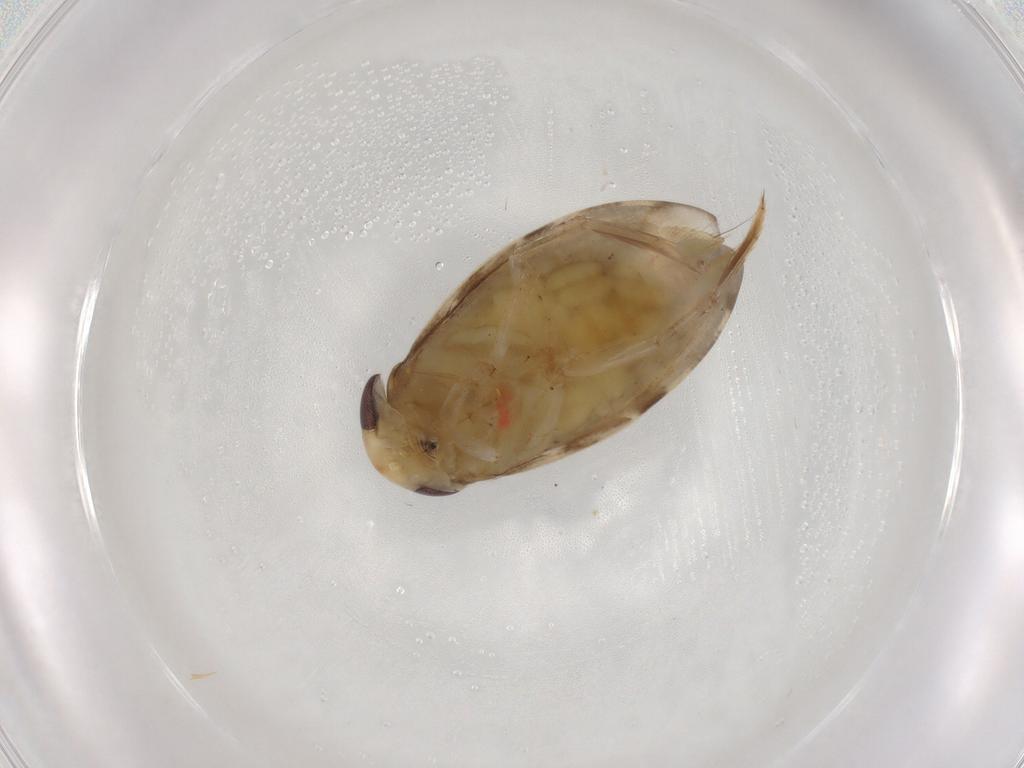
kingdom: Animalia
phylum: Arthropoda
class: Insecta
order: Hemiptera
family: Corixidae
